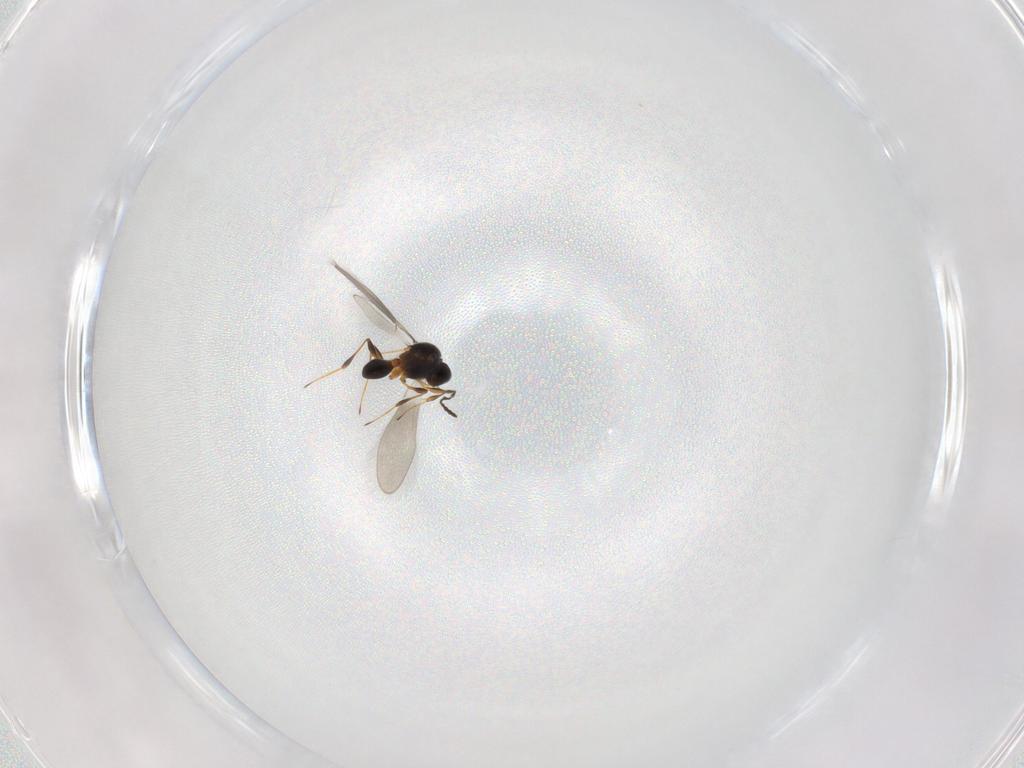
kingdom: Animalia
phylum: Arthropoda
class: Insecta
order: Hymenoptera
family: Platygastridae
